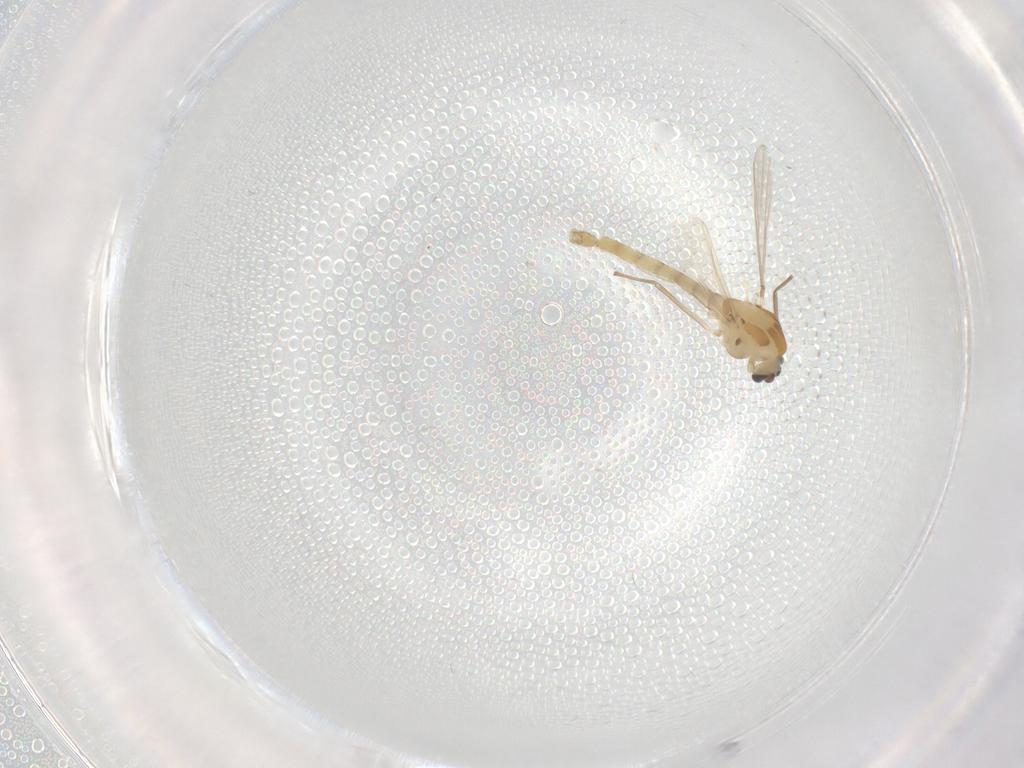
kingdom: Animalia
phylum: Arthropoda
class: Insecta
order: Diptera
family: Chironomidae
